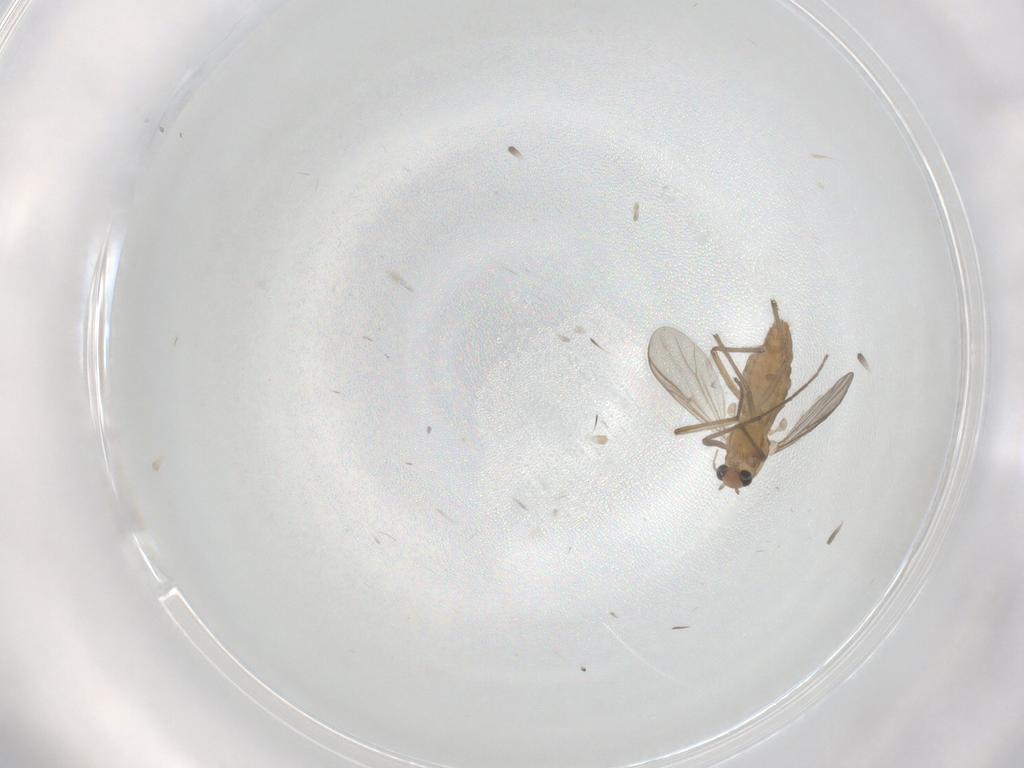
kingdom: Animalia
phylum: Arthropoda
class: Insecta
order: Diptera
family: Chironomidae
